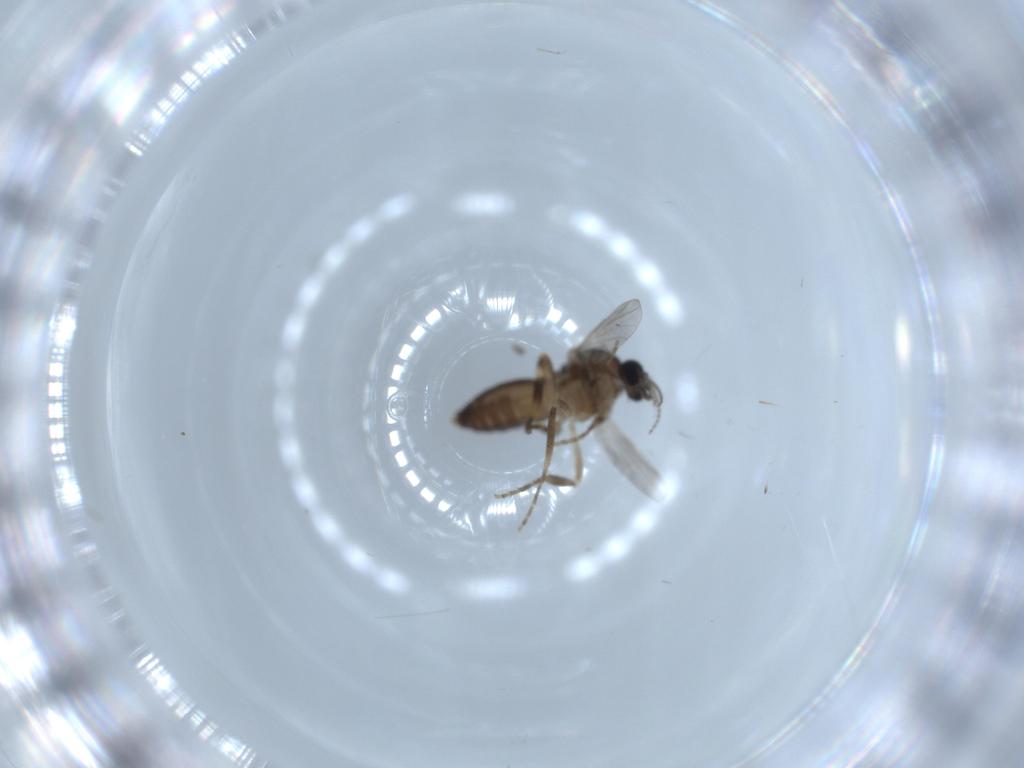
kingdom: Animalia
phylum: Arthropoda
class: Insecta
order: Diptera
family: Ceratopogonidae
